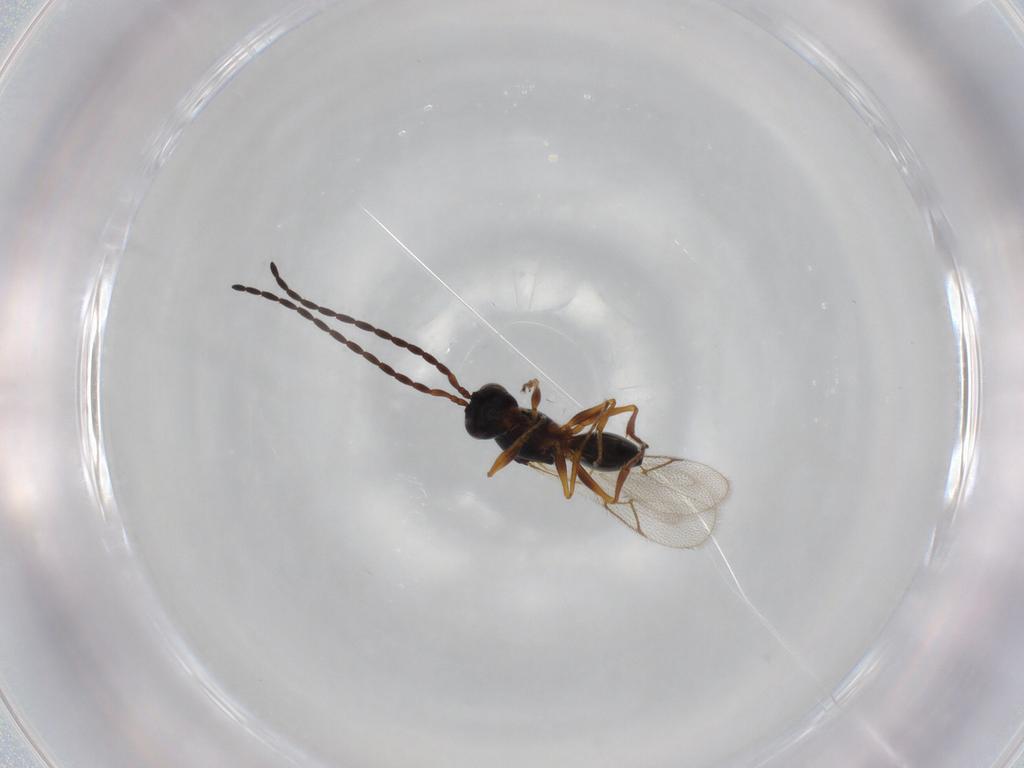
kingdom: Animalia
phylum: Arthropoda
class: Insecta
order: Hymenoptera
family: Figitidae
